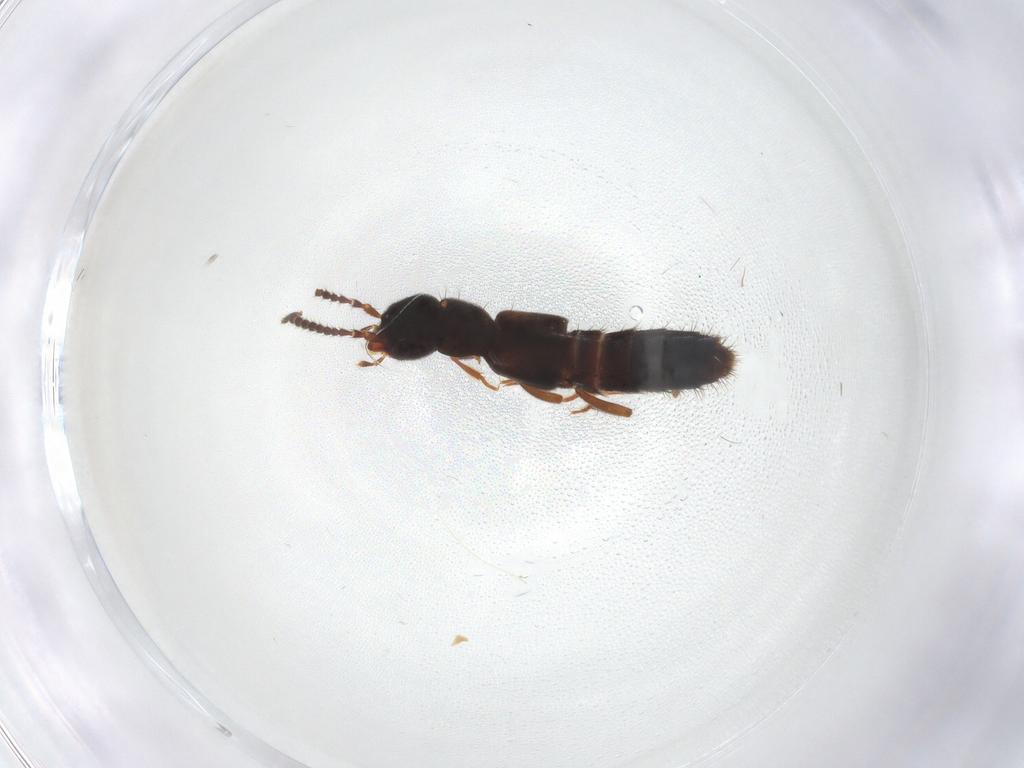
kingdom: Animalia
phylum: Arthropoda
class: Insecta
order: Coleoptera
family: Staphylinidae
